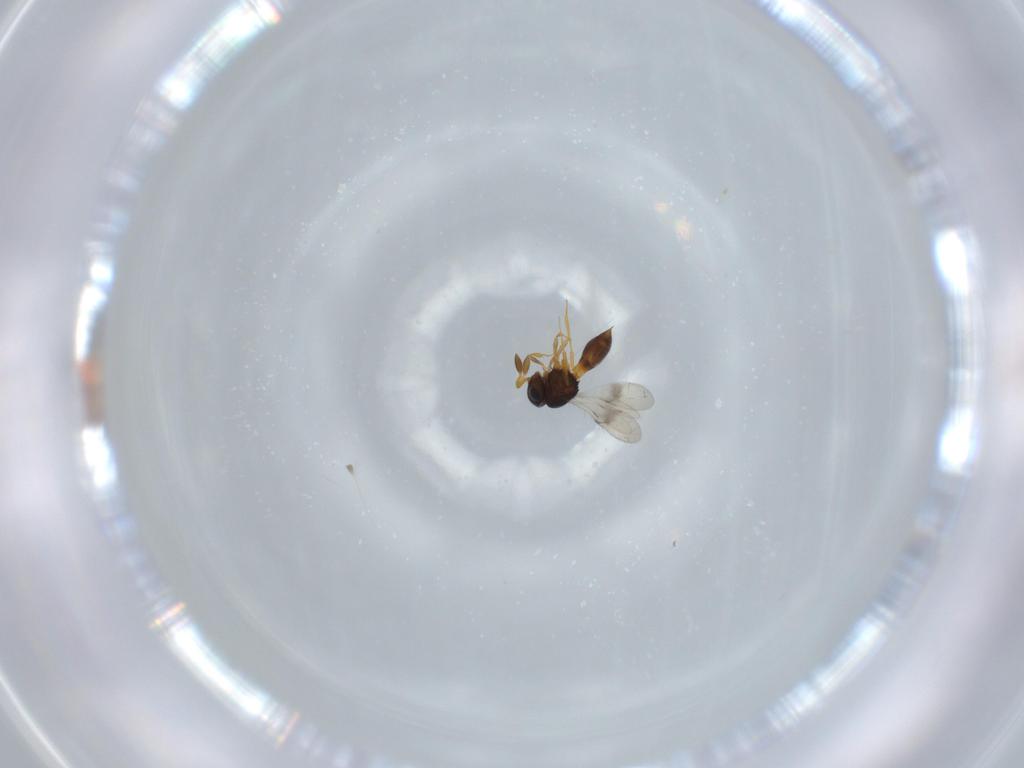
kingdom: Animalia
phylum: Arthropoda
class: Insecta
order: Hymenoptera
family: Scelionidae
